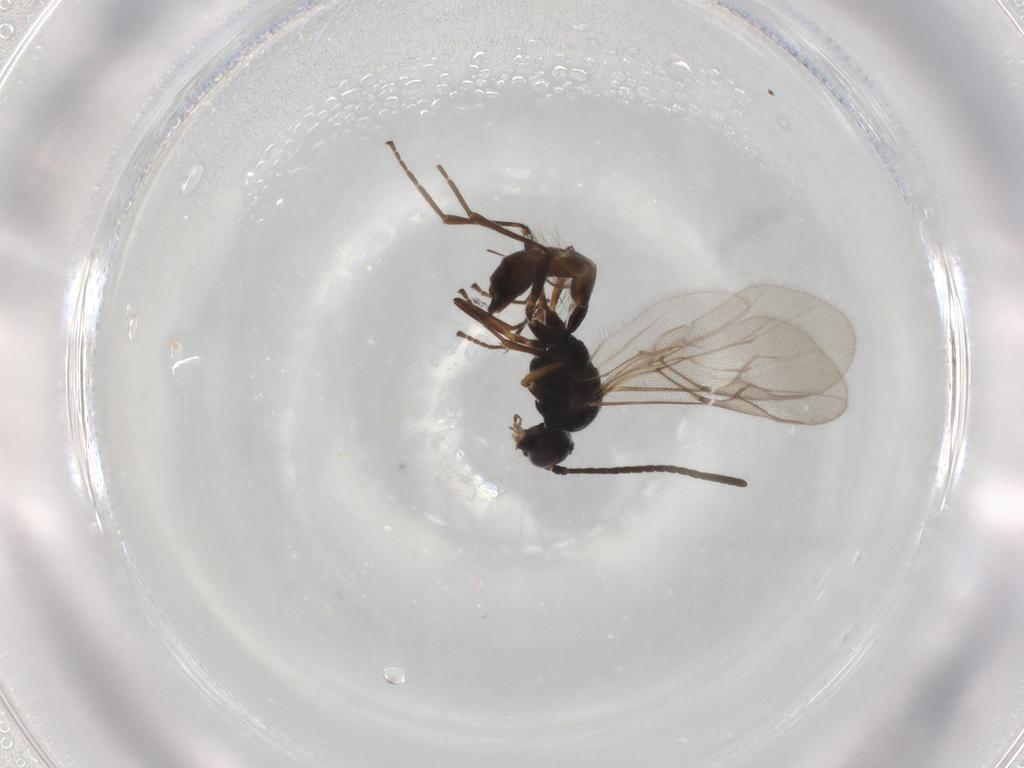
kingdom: Animalia
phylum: Arthropoda
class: Insecta
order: Hymenoptera
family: Braconidae
